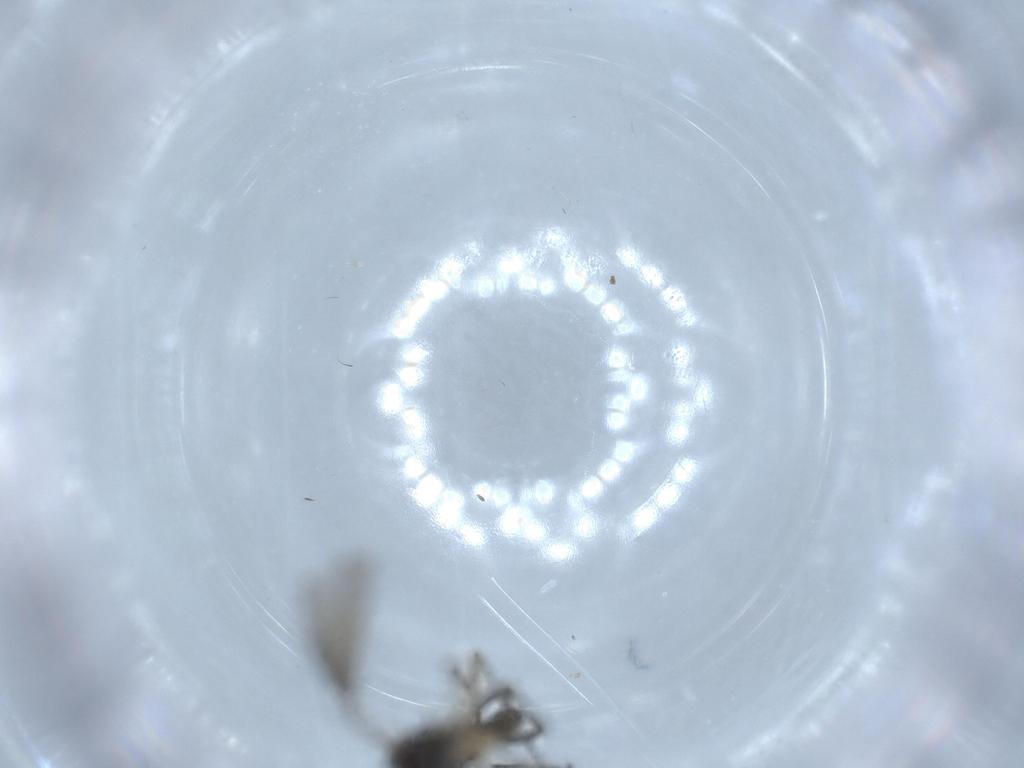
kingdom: Animalia
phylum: Arthropoda
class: Insecta
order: Diptera
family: Sciaridae
